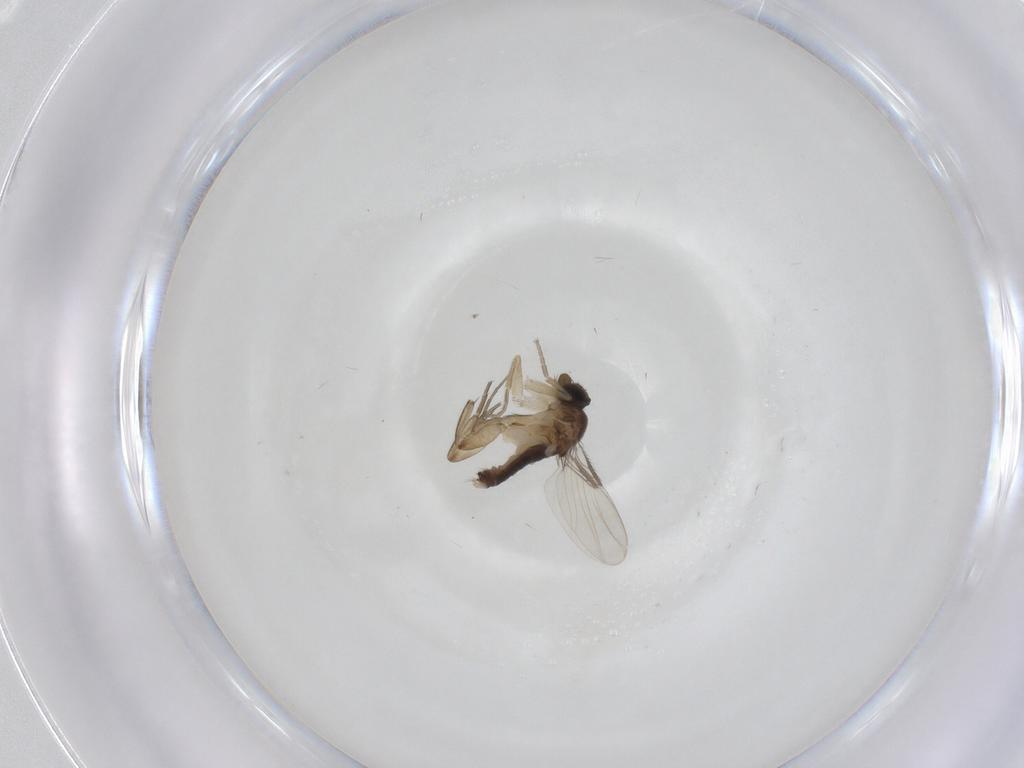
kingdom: Animalia
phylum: Arthropoda
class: Insecta
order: Diptera
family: Phoridae
